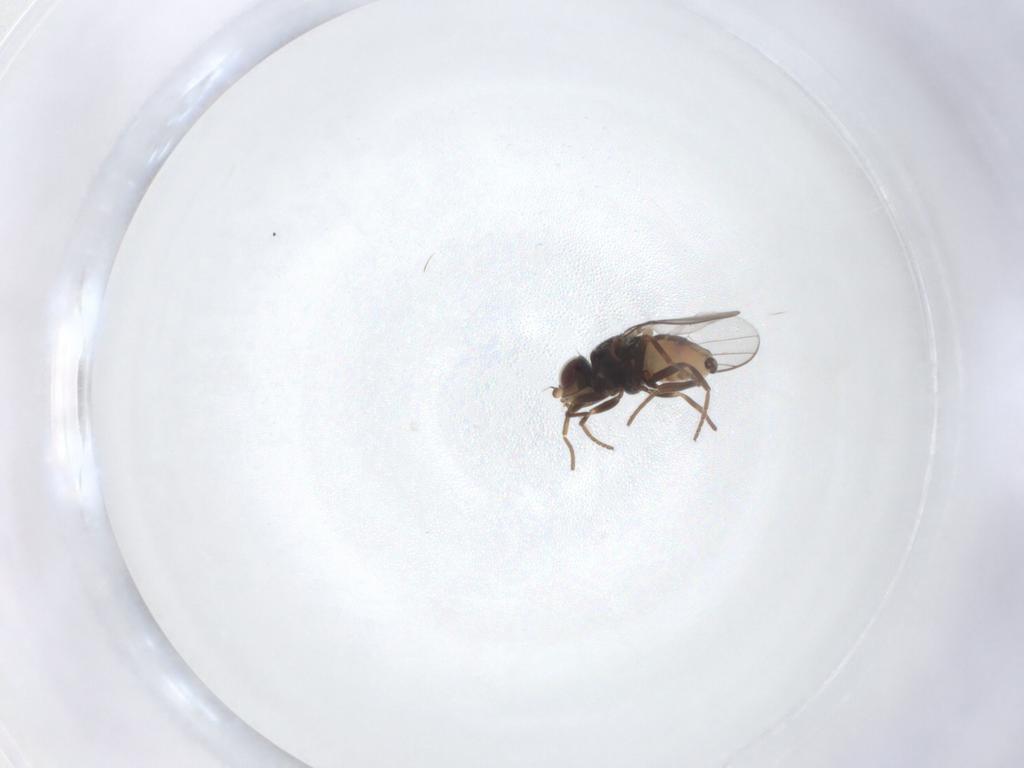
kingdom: Animalia
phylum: Arthropoda
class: Insecta
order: Diptera
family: Chloropidae
